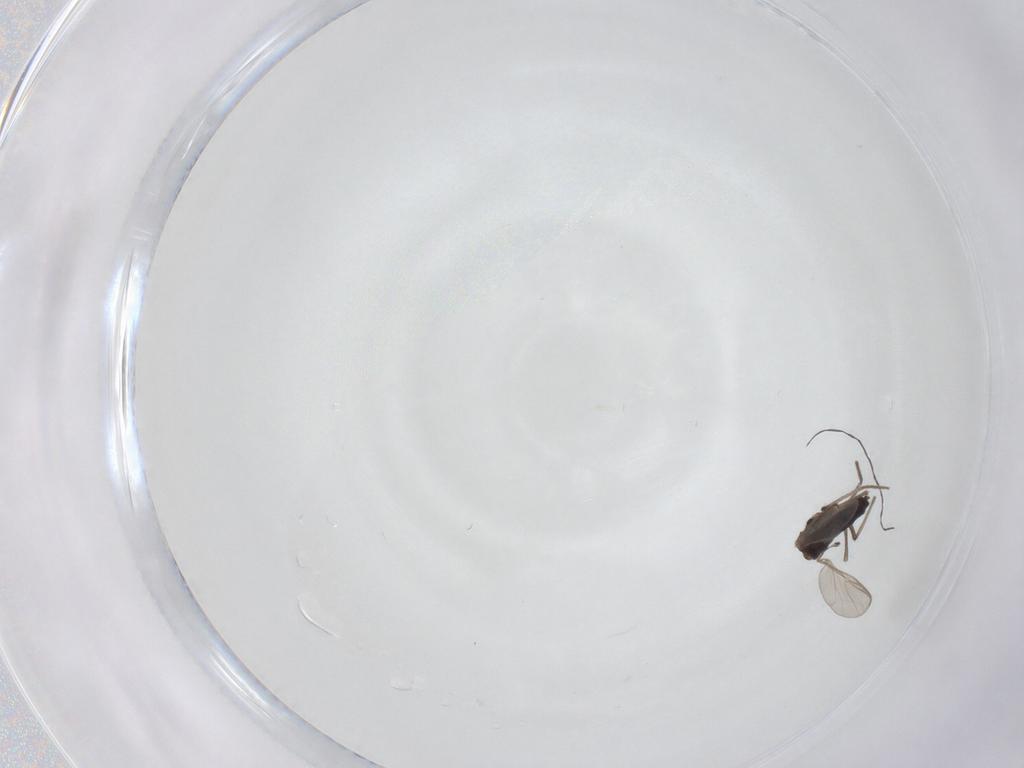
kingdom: Animalia
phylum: Arthropoda
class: Insecta
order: Diptera
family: Chironomidae
